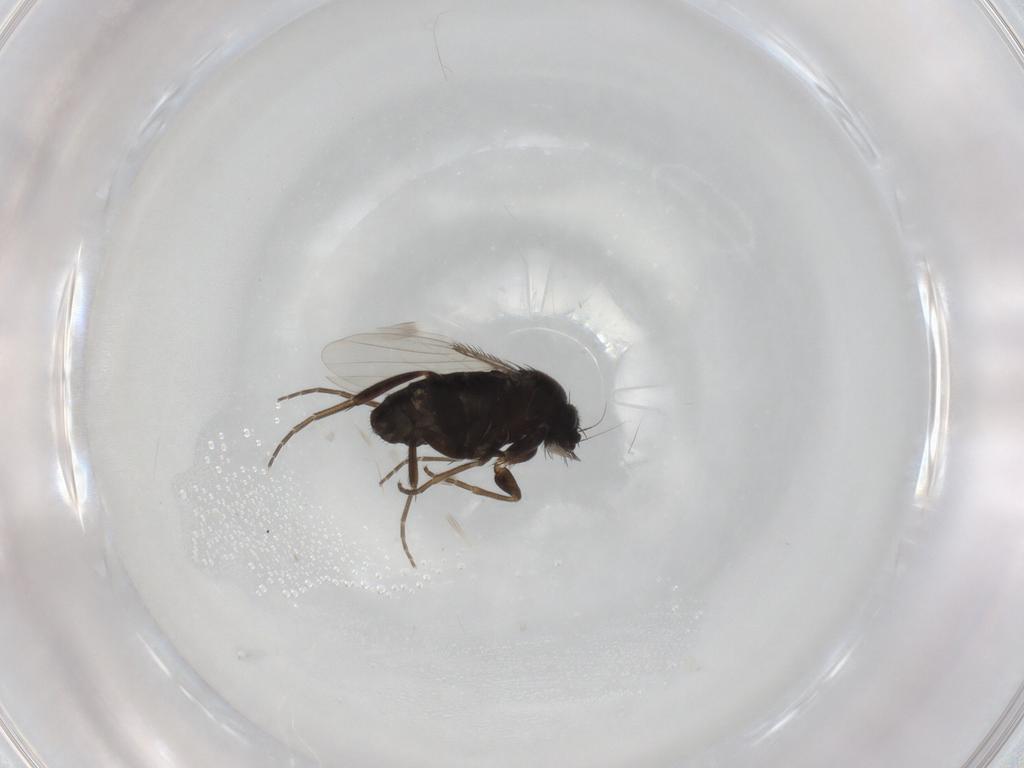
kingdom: Animalia
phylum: Arthropoda
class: Insecta
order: Diptera
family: Phoridae
